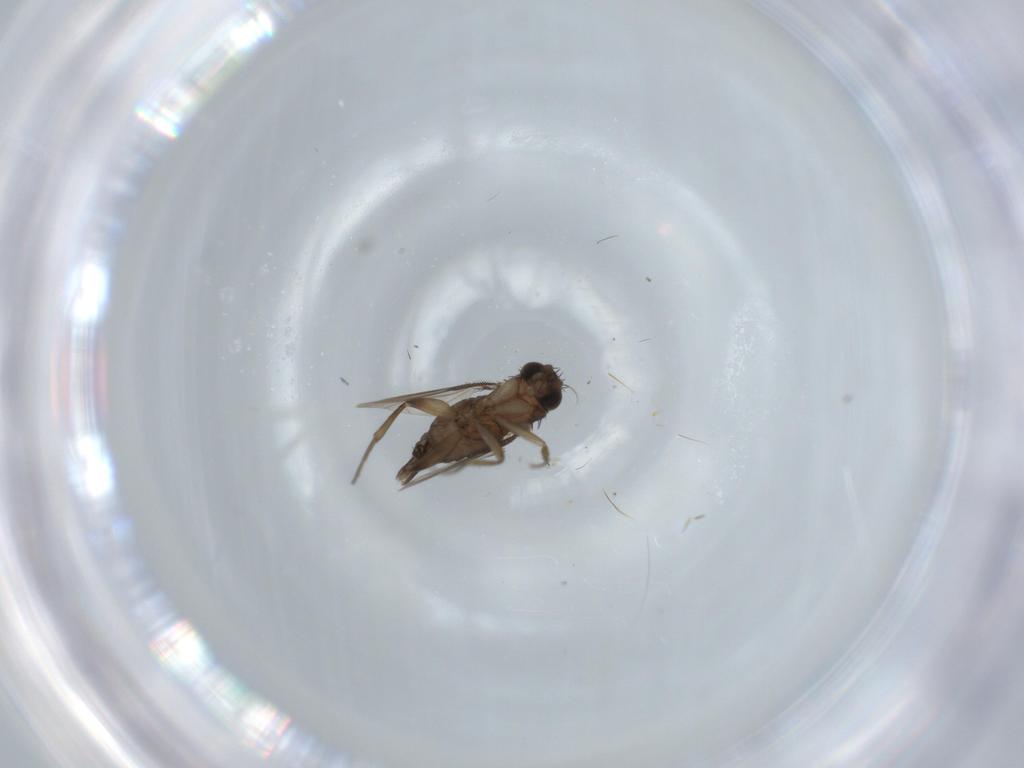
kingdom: Animalia
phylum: Arthropoda
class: Insecta
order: Diptera
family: Phoridae
